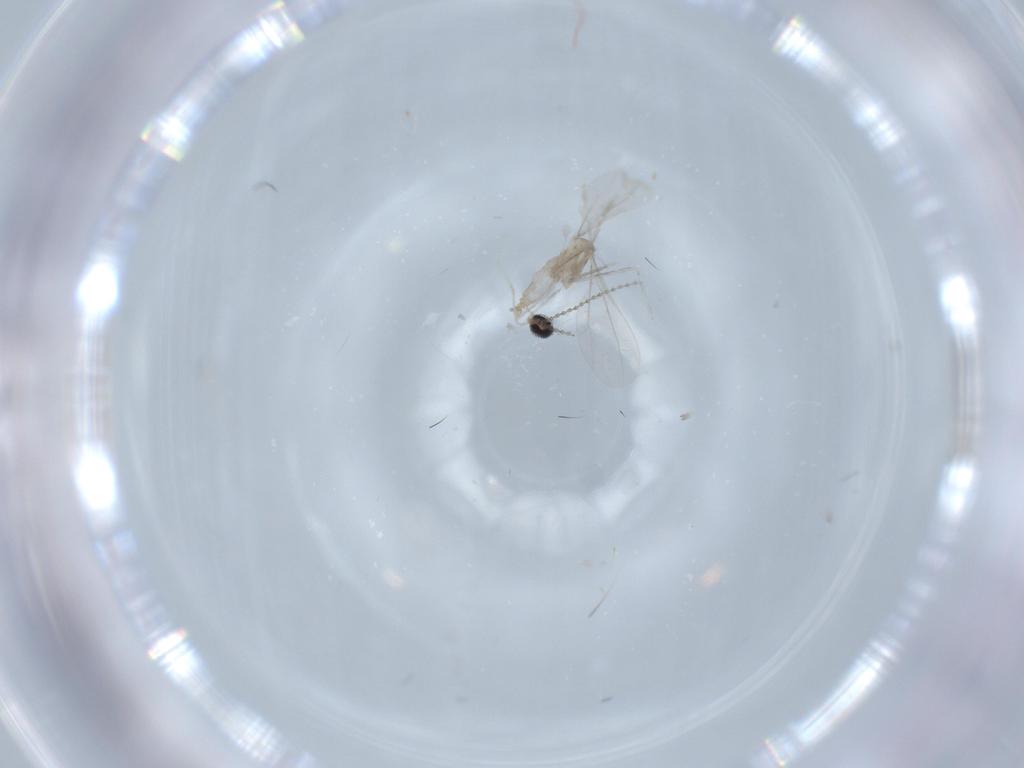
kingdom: Animalia
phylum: Arthropoda
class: Insecta
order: Diptera
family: Cecidomyiidae
